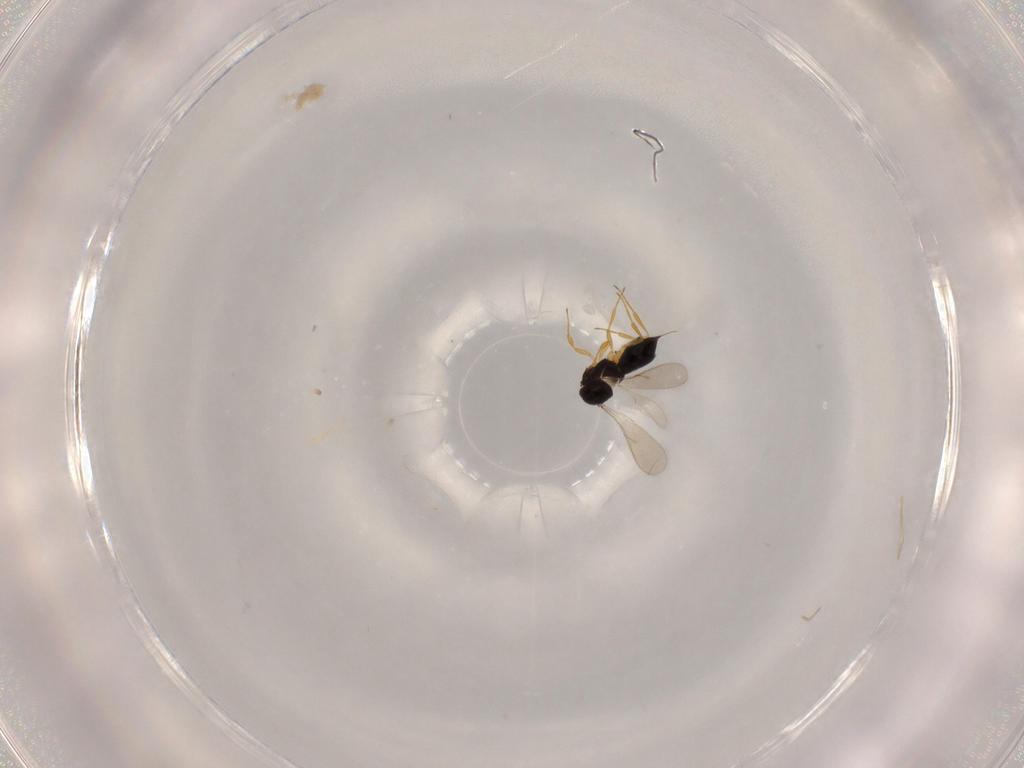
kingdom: Animalia
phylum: Arthropoda
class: Insecta
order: Hymenoptera
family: Scelionidae
